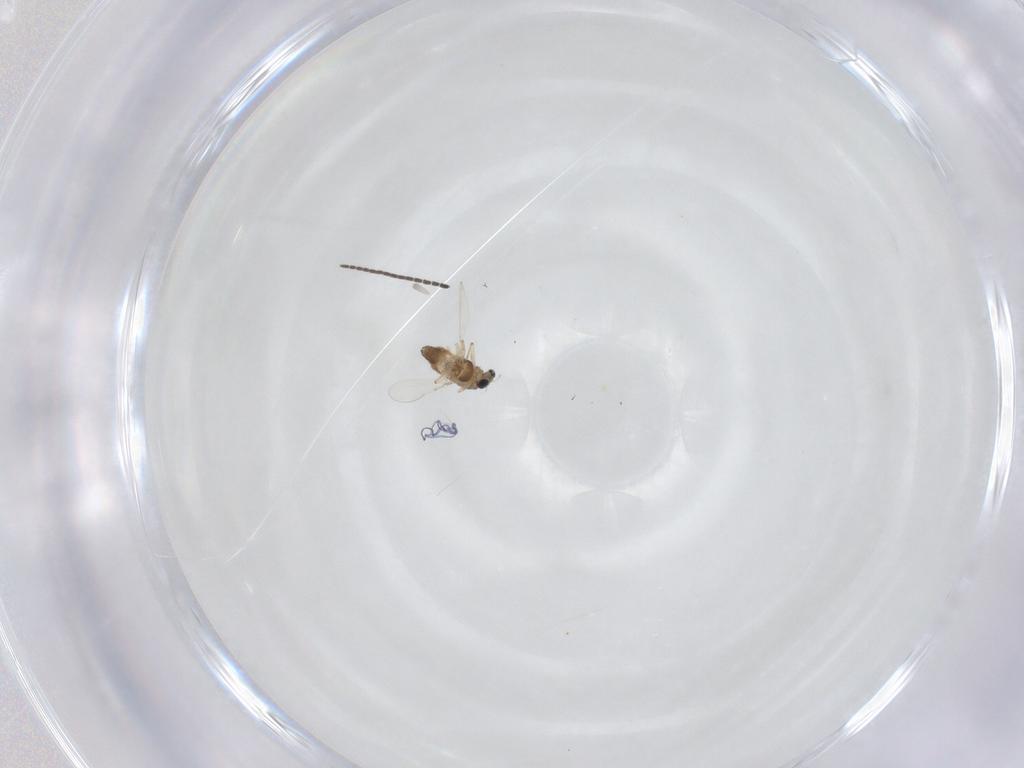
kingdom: Animalia
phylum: Arthropoda
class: Insecta
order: Diptera
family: Chironomidae
